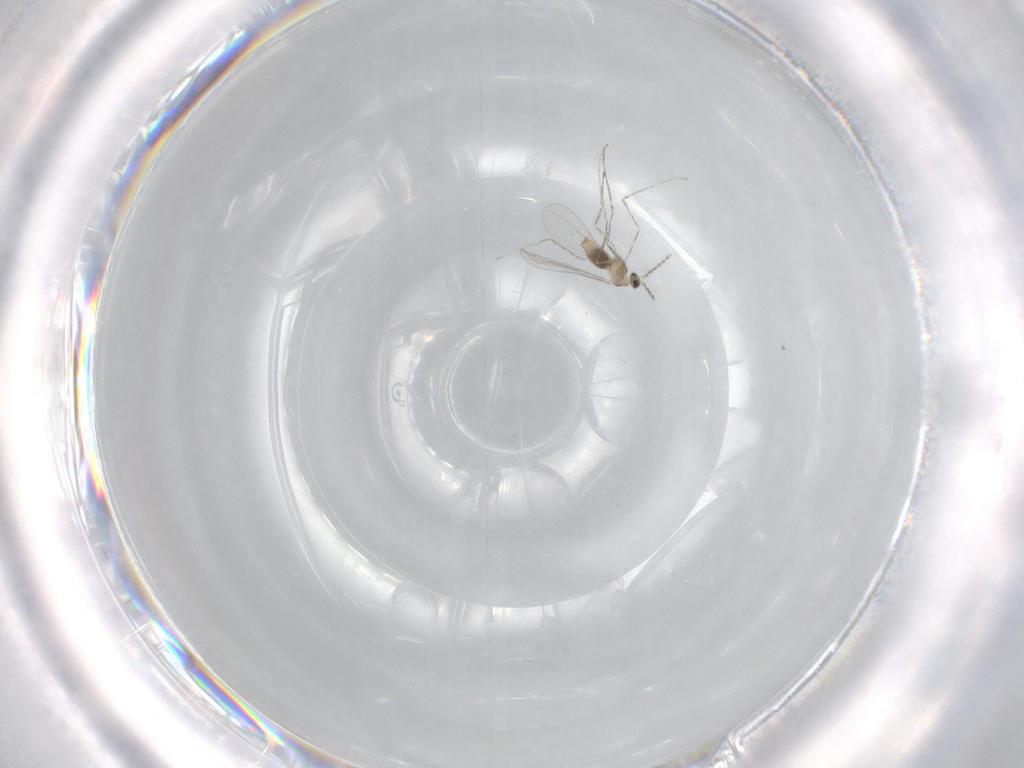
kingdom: Animalia
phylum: Arthropoda
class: Insecta
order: Diptera
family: Cecidomyiidae
